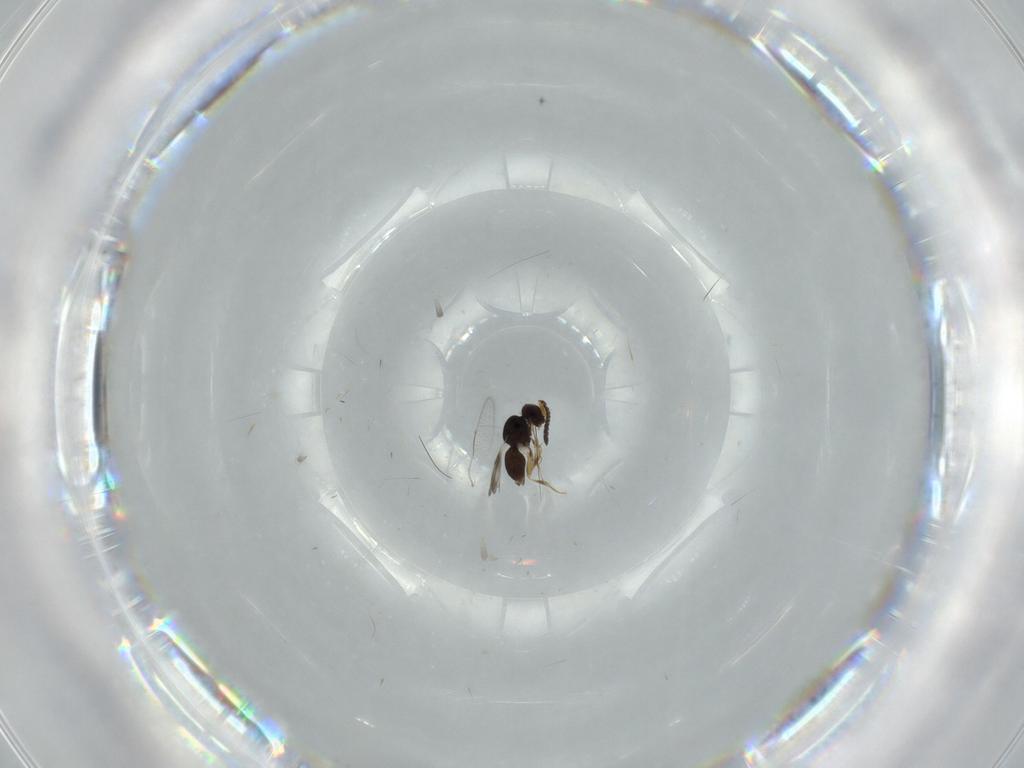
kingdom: Animalia
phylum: Arthropoda
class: Insecta
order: Hymenoptera
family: Ceraphronidae
